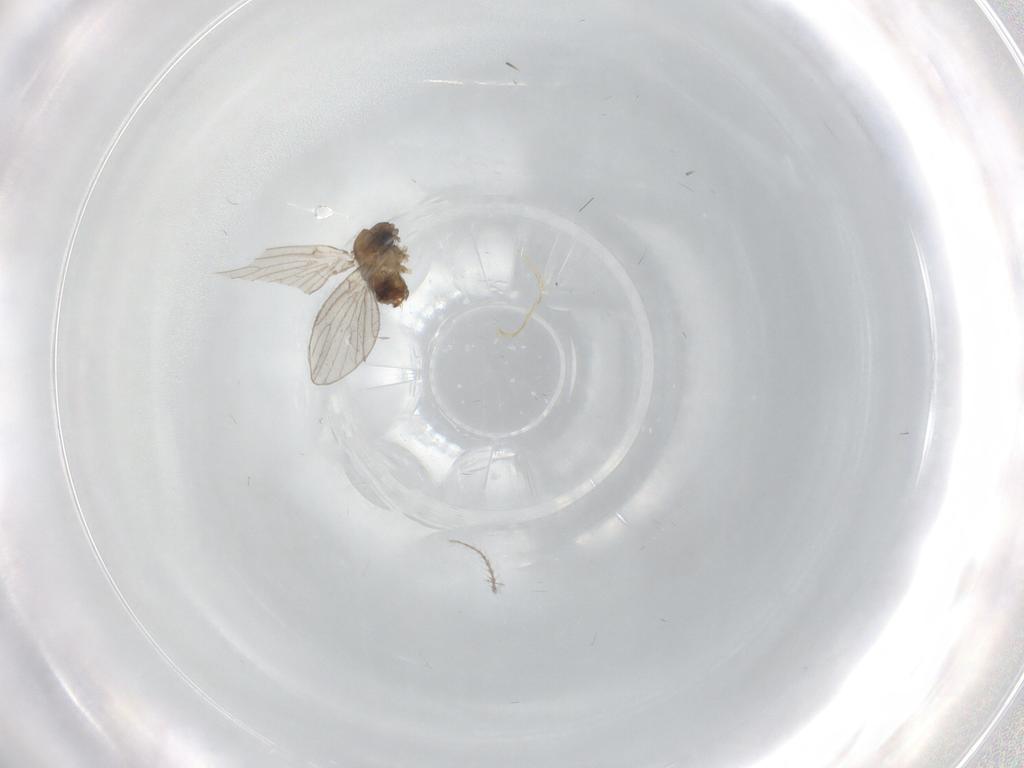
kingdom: Animalia
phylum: Arthropoda
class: Insecta
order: Diptera
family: Psychodidae
